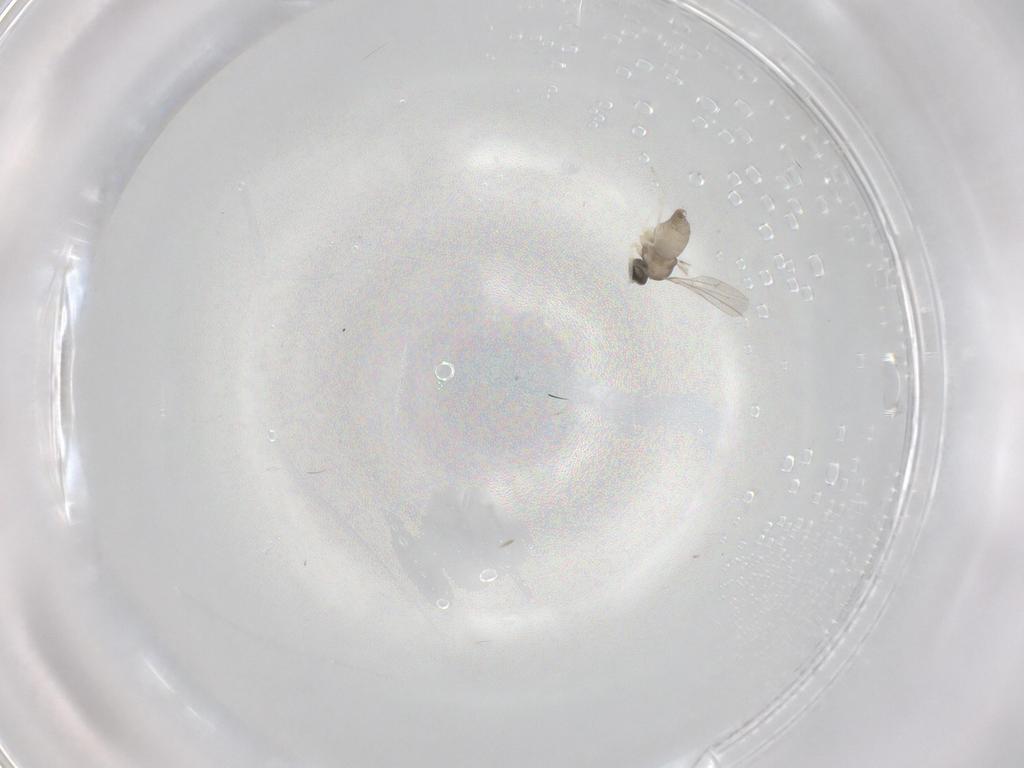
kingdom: Animalia
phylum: Arthropoda
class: Insecta
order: Diptera
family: Cecidomyiidae
